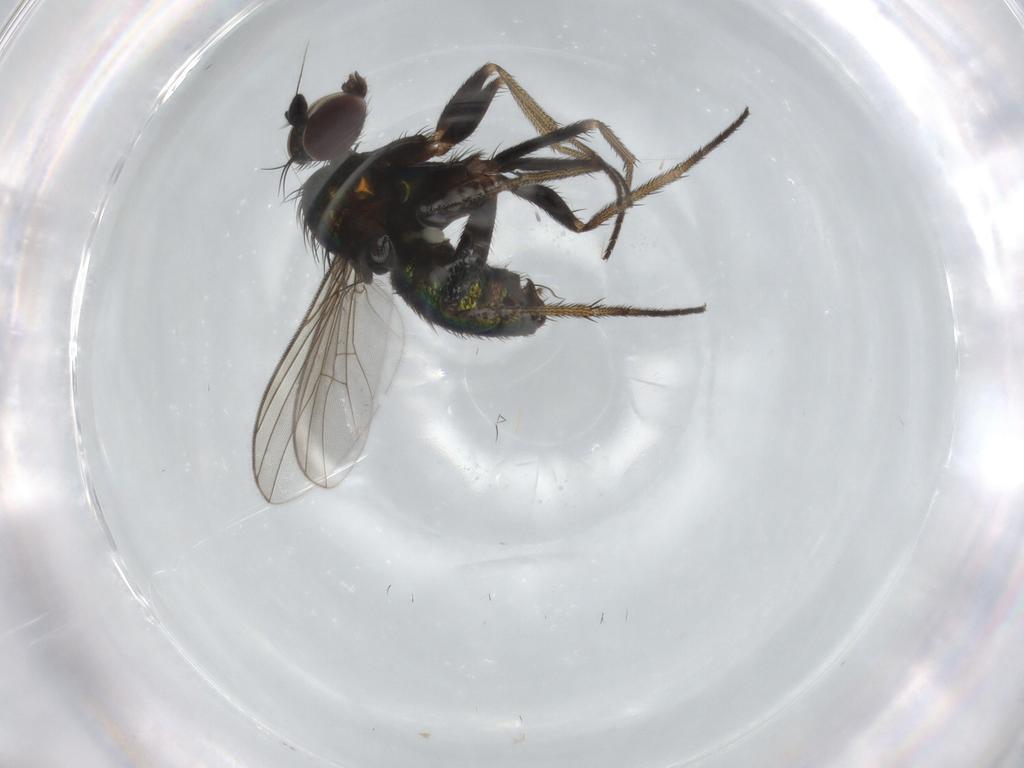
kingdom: Animalia
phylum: Arthropoda
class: Insecta
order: Diptera
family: Dolichopodidae
